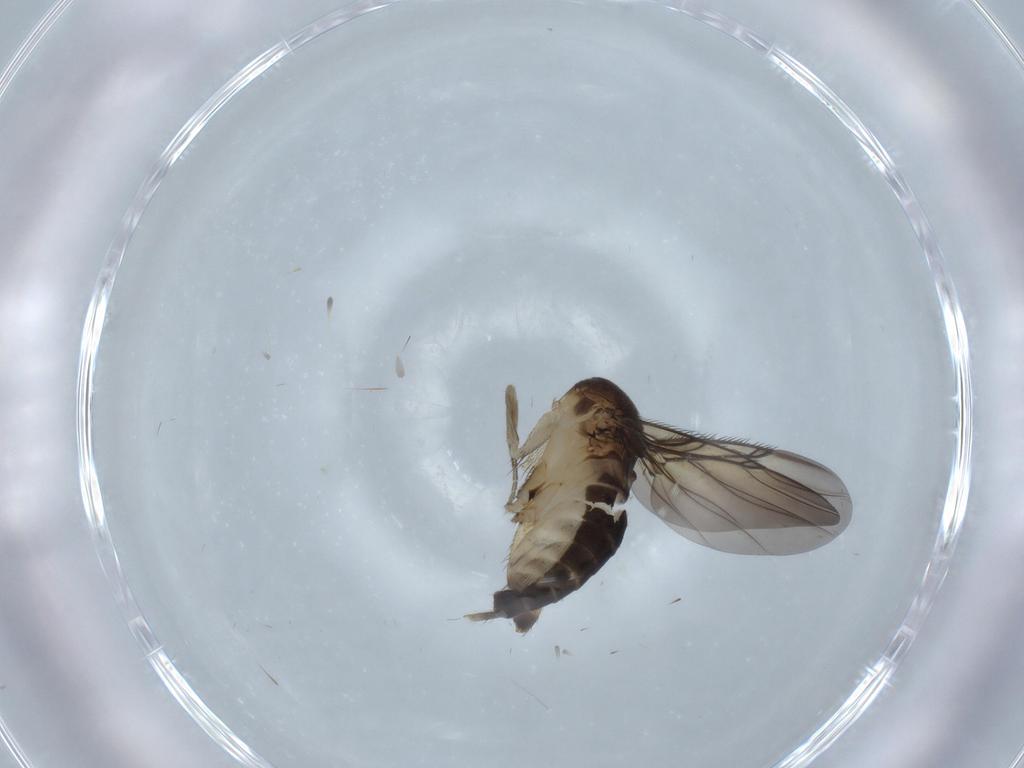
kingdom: Animalia
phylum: Arthropoda
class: Insecta
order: Diptera
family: Phoridae
